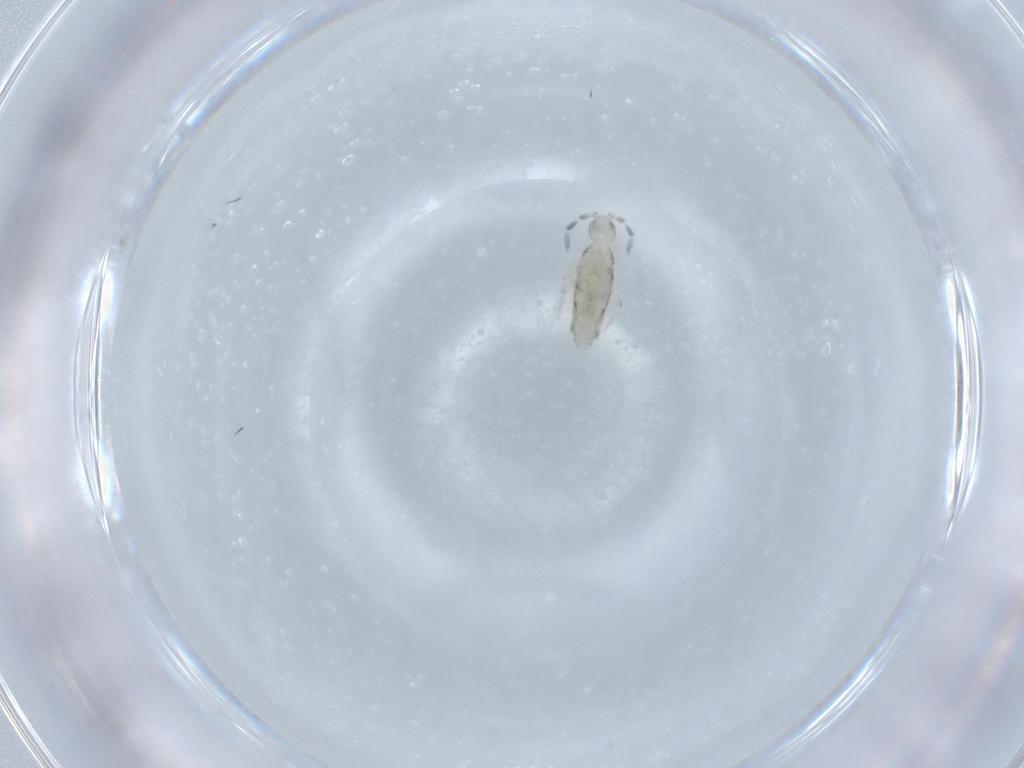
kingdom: Animalia
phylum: Arthropoda
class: Collembola
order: Entomobryomorpha
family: Entomobryidae
